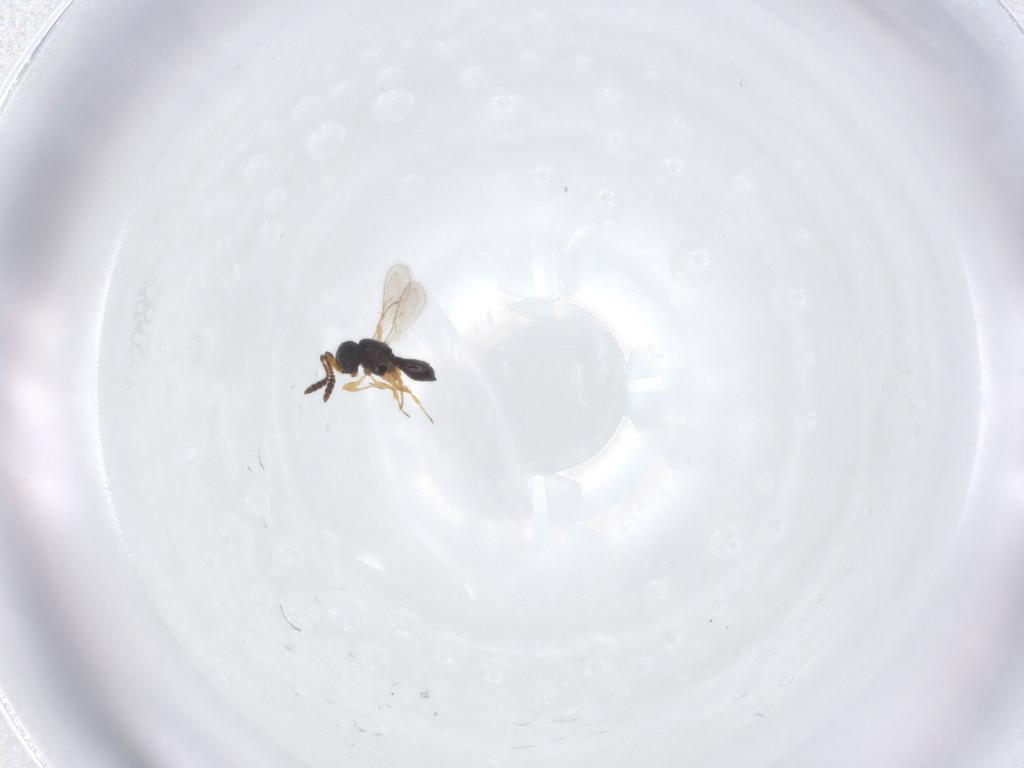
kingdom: Animalia
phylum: Arthropoda
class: Insecta
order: Hymenoptera
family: Scelionidae
